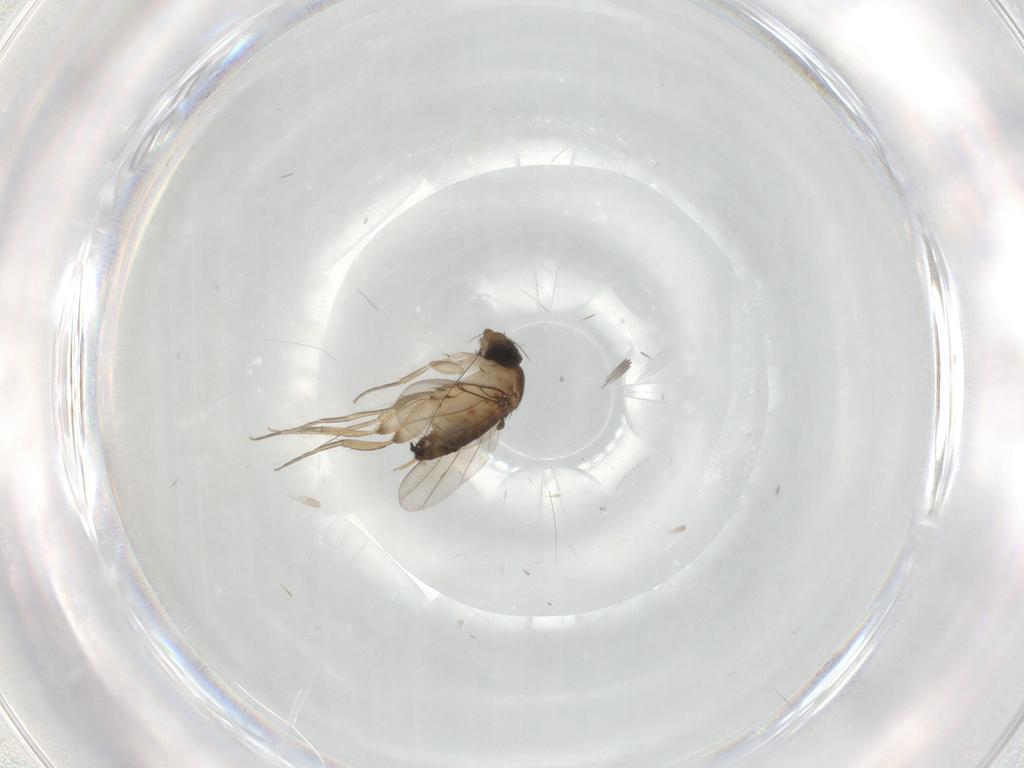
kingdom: Animalia
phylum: Arthropoda
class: Insecta
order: Diptera
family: Phoridae
